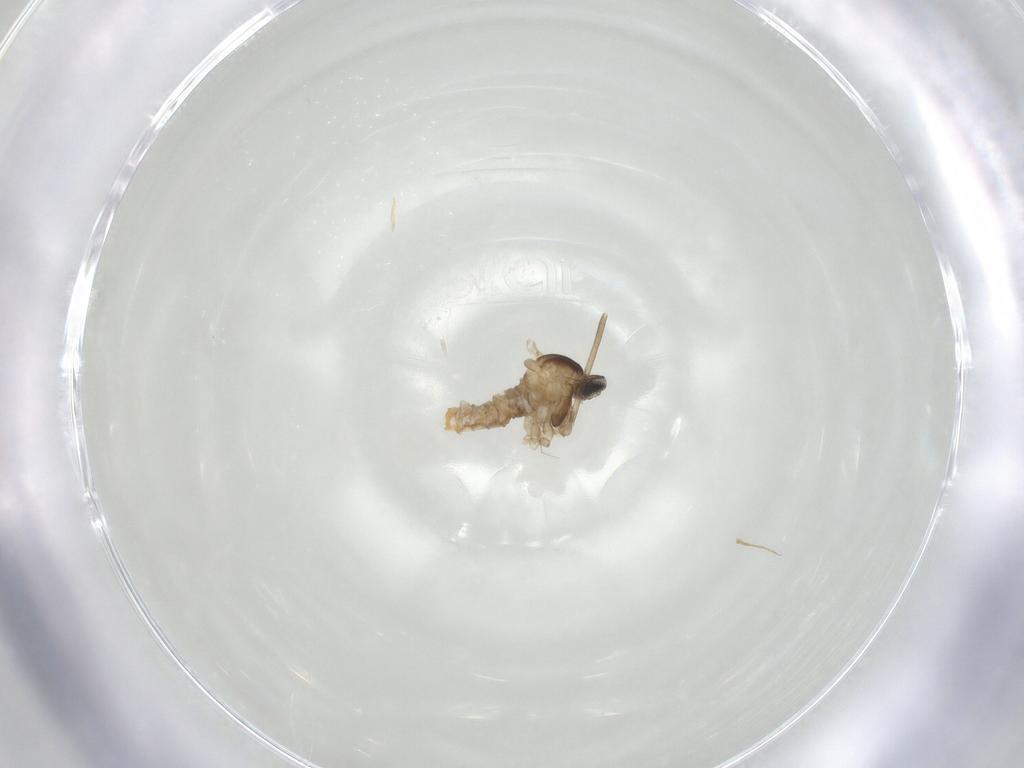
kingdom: Animalia
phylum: Arthropoda
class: Insecta
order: Diptera
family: Cecidomyiidae
